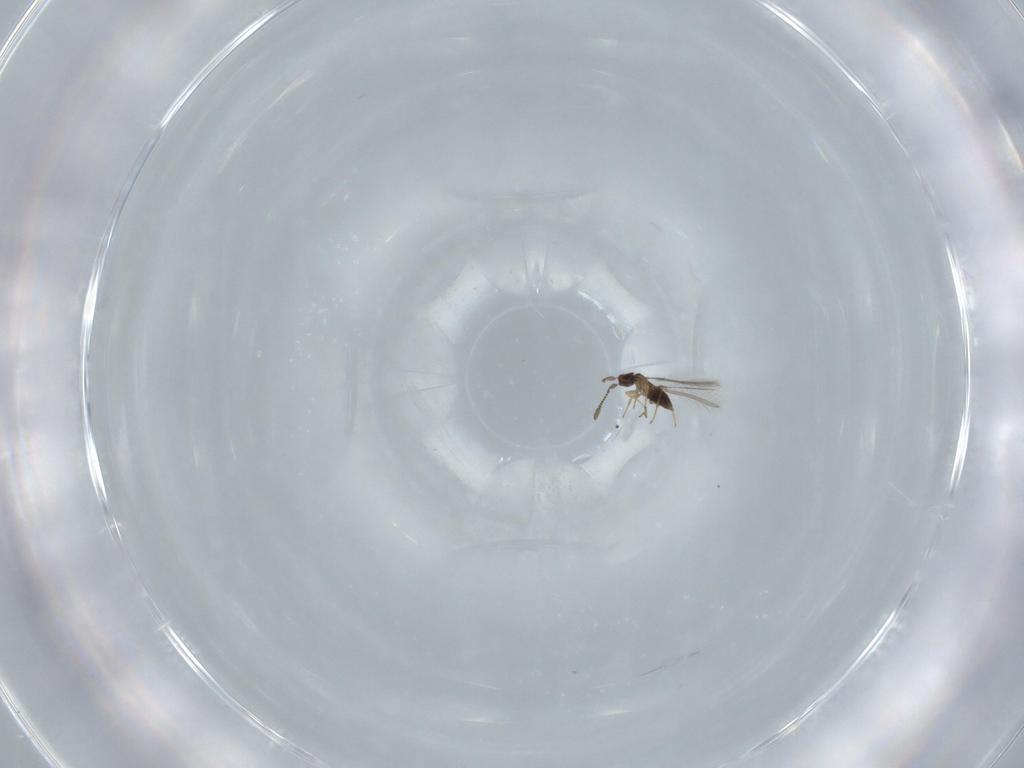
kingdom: Animalia
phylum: Arthropoda
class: Insecta
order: Hymenoptera
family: Mymaridae
